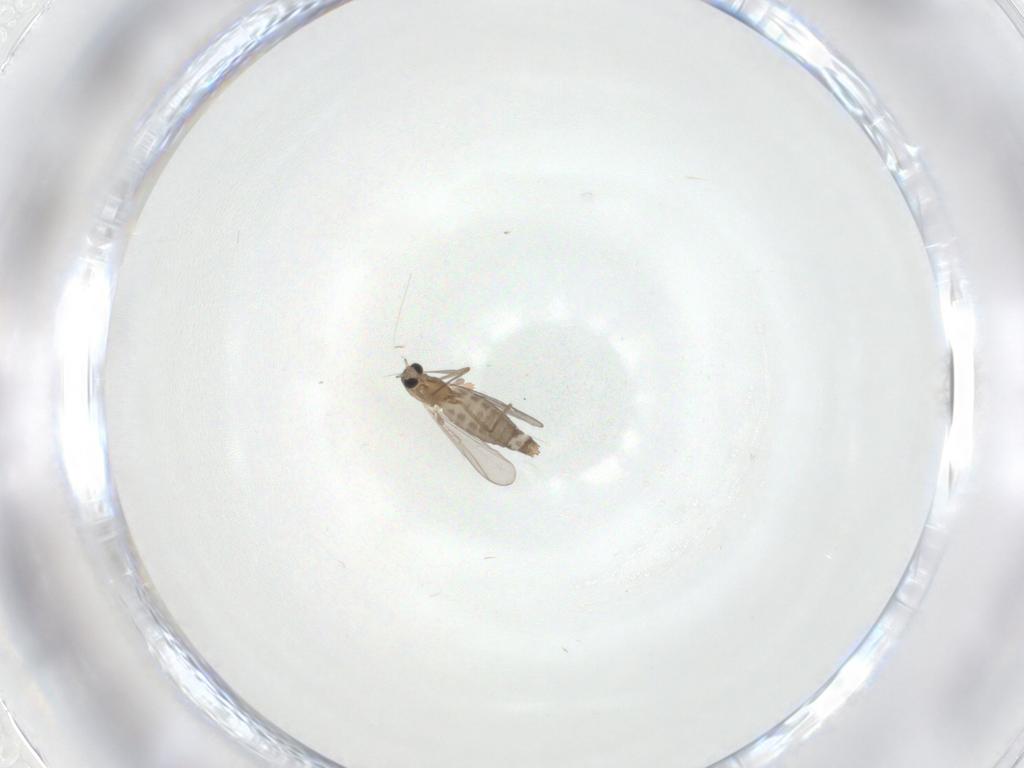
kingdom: Animalia
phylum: Arthropoda
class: Insecta
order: Diptera
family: Chironomidae
